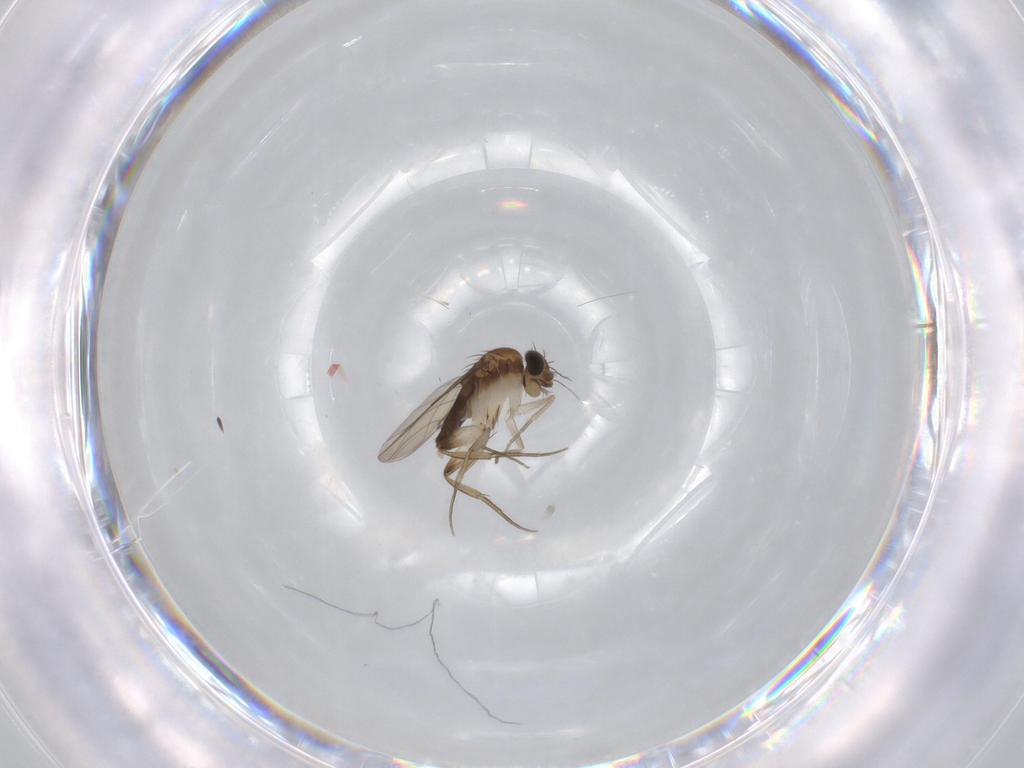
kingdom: Animalia
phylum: Arthropoda
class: Insecta
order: Diptera
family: Phoridae
